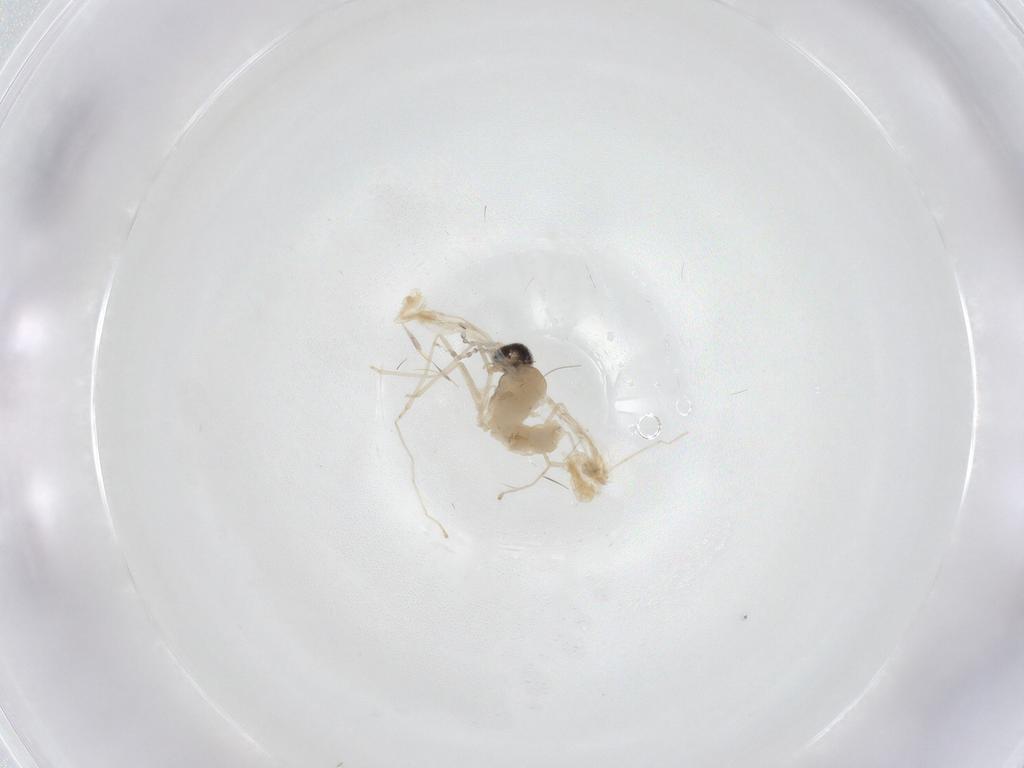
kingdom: Animalia
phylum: Arthropoda
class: Insecta
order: Diptera
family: Cecidomyiidae
